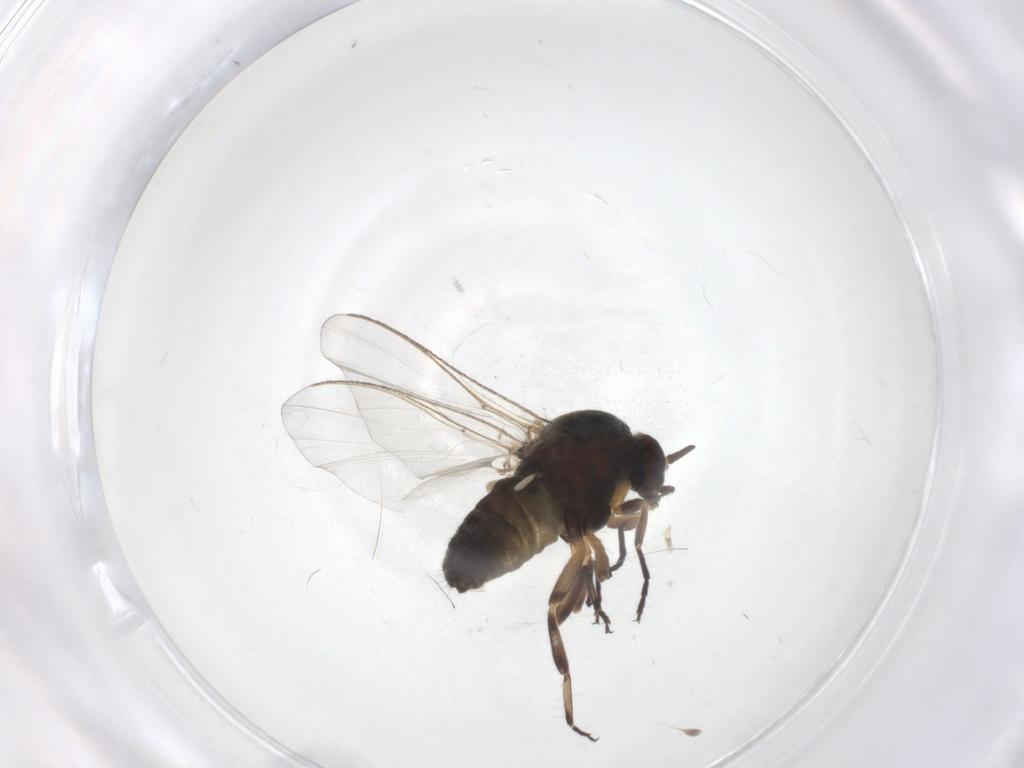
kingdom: Animalia
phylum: Arthropoda
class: Insecta
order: Diptera
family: Simuliidae
